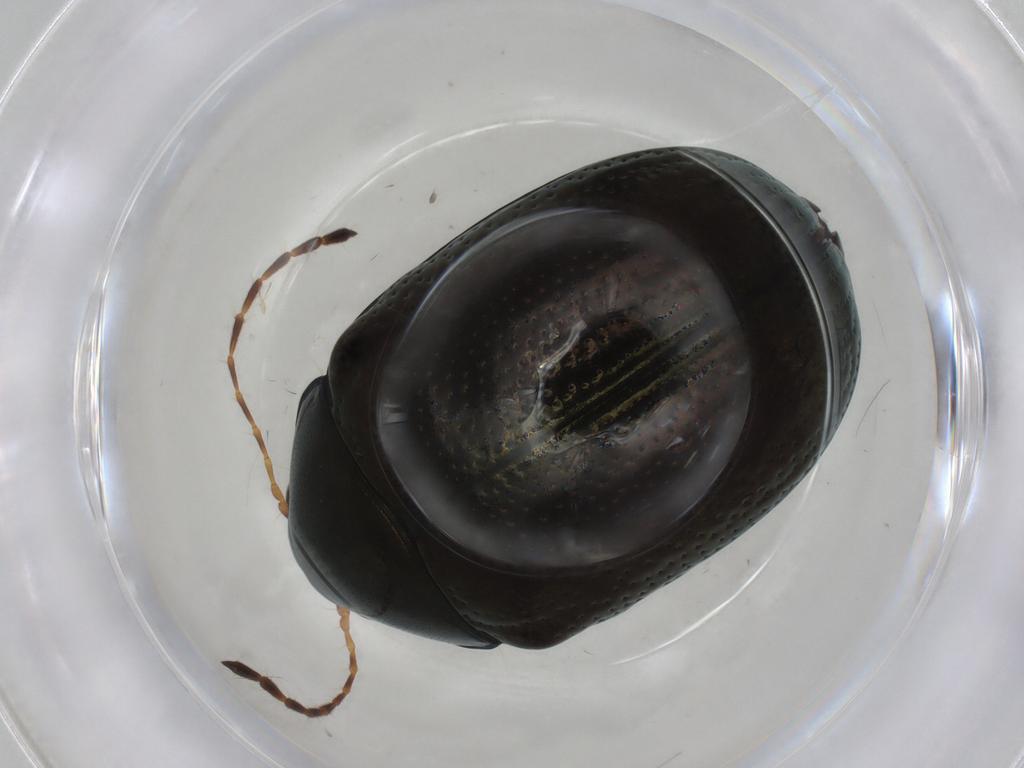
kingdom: Animalia
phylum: Arthropoda
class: Insecta
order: Coleoptera
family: Chrysomelidae
